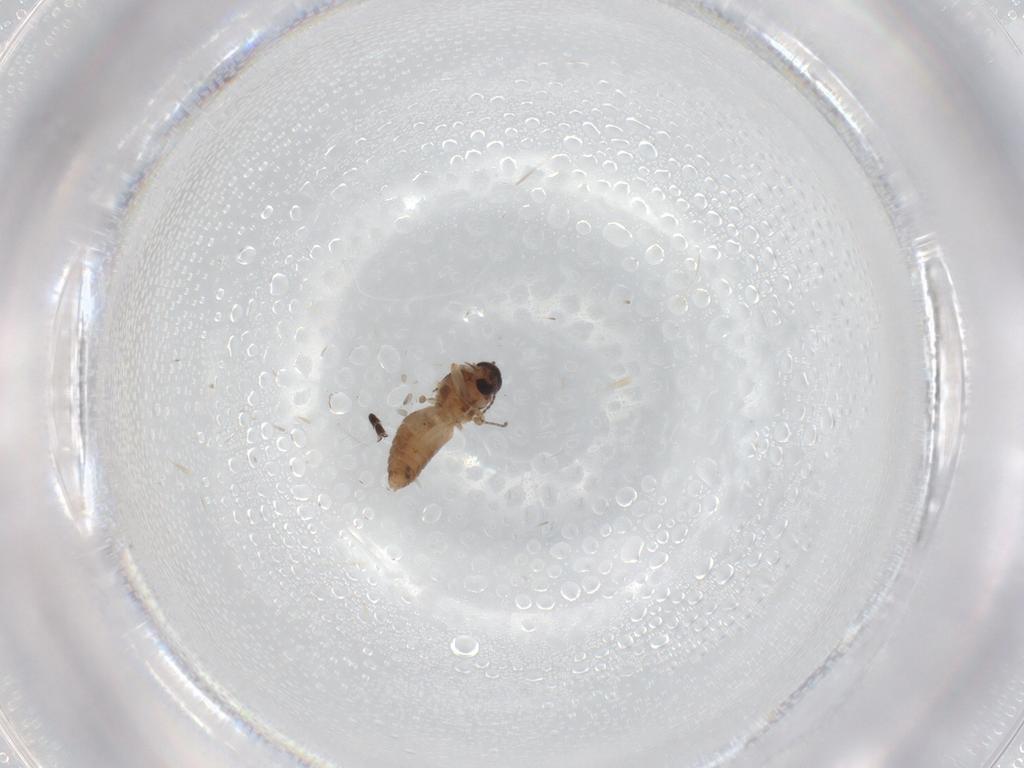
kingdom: Animalia
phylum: Arthropoda
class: Insecta
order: Diptera
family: Ceratopogonidae
